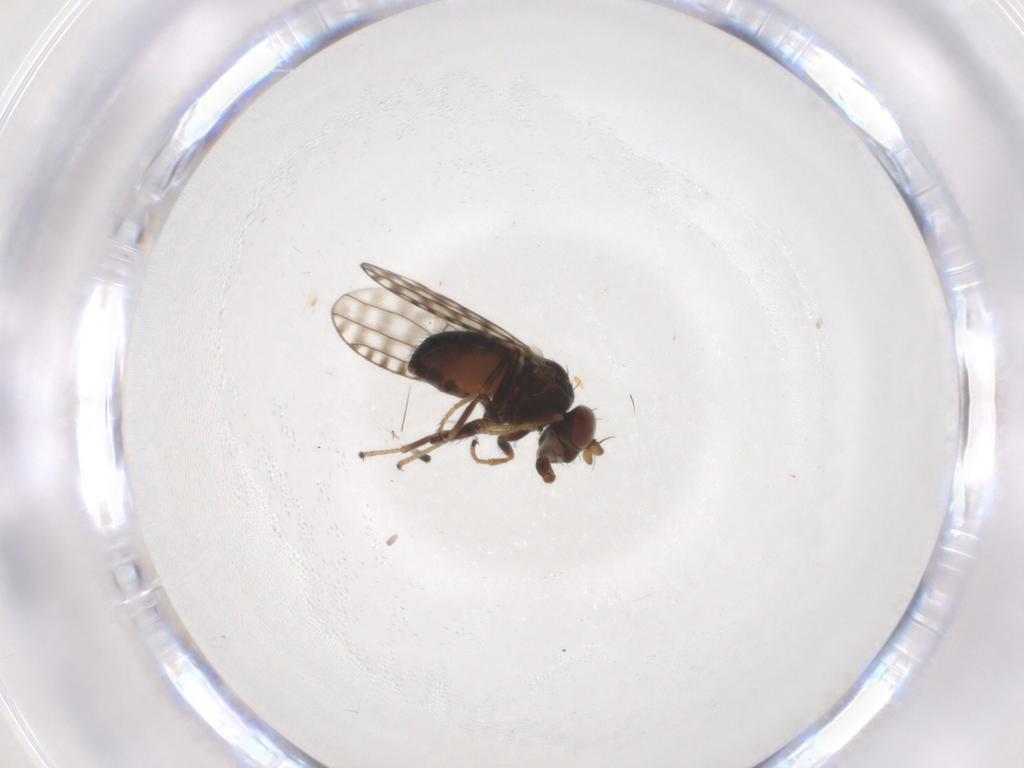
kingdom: Animalia
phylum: Arthropoda
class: Insecta
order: Diptera
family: Ephydridae
